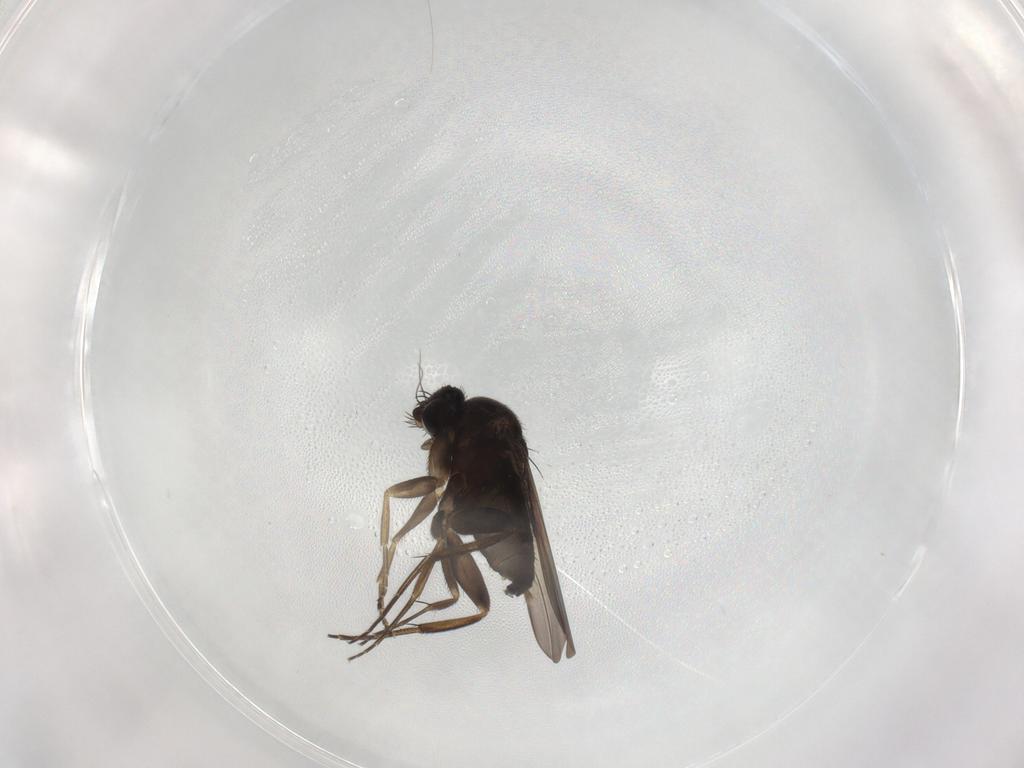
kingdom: Animalia
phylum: Arthropoda
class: Insecta
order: Diptera
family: Phoridae
